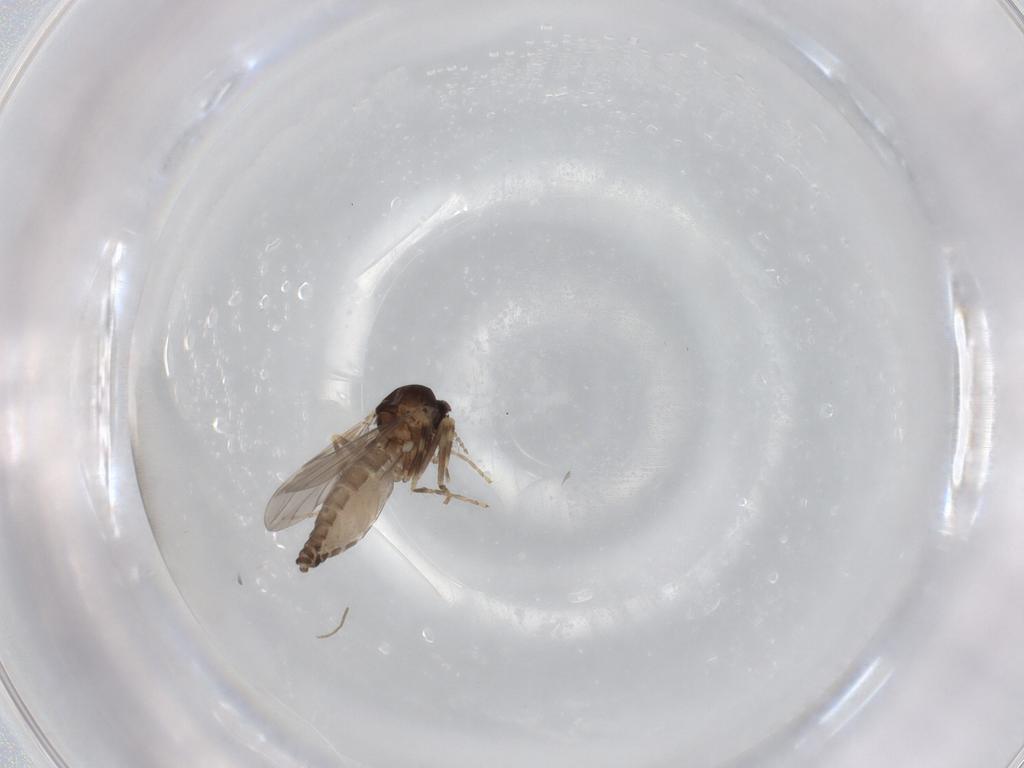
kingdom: Animalia
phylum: Arthropoda
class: Insecta
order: Diptera
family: Ceratopogonidae
